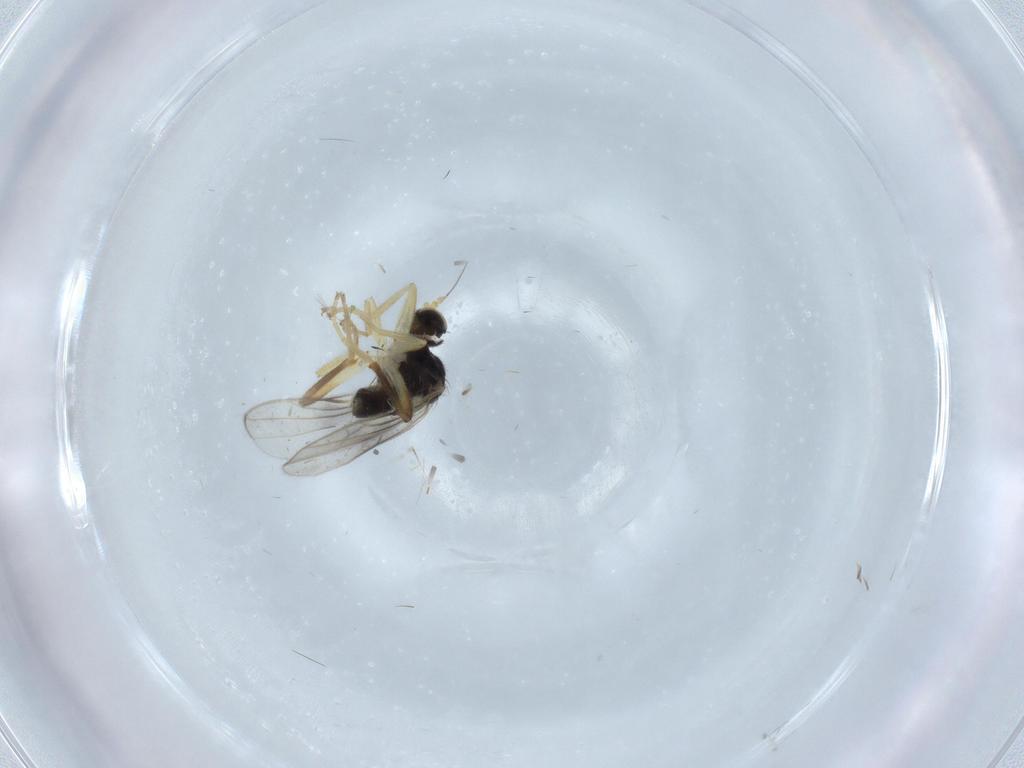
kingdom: Animalia
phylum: Arthropoda
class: Insecta
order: Diptera
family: Hybotidae
